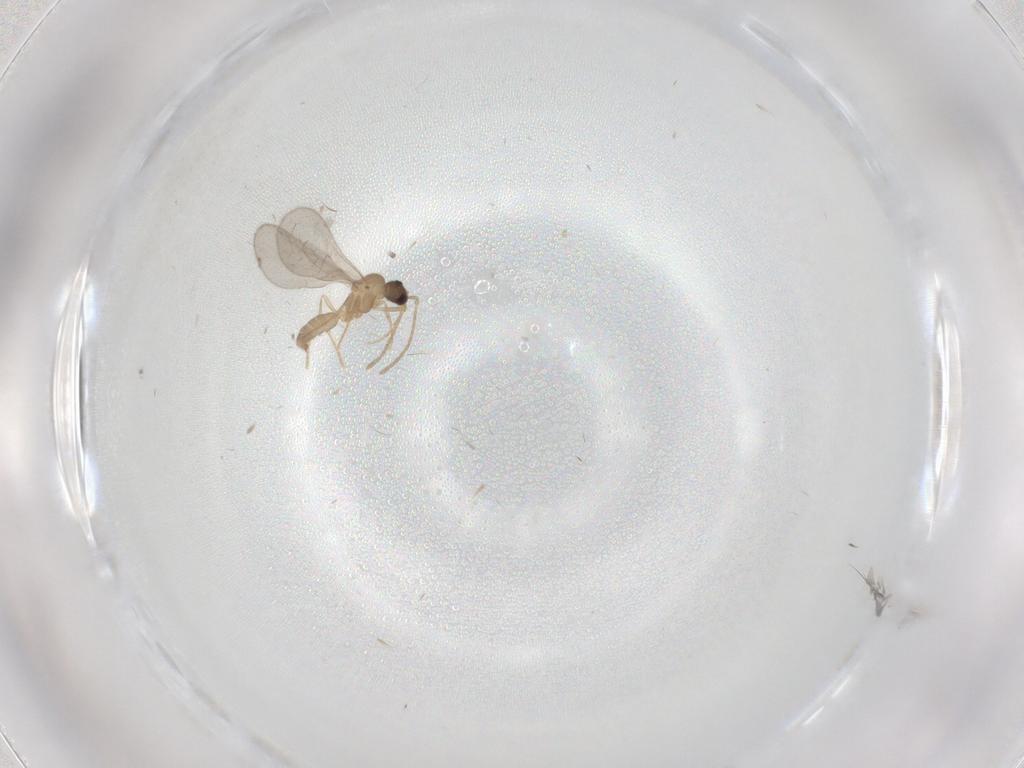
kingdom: Animalia
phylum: Arthropoda
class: Insecta
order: Hymenoptera
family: Formicidae
